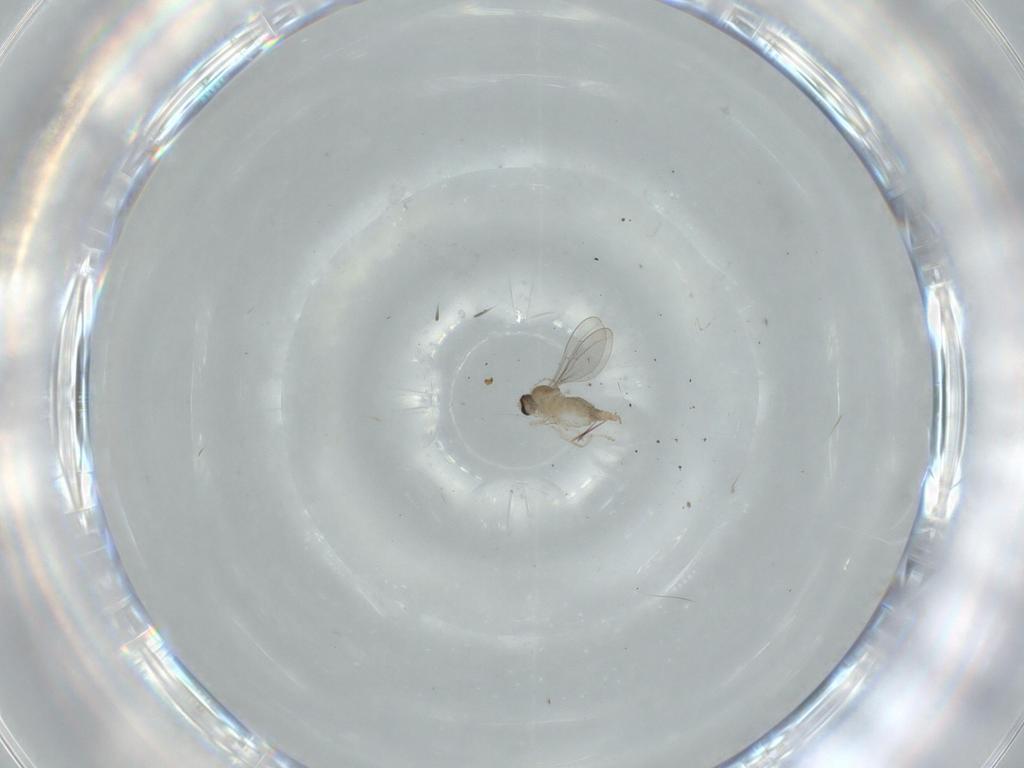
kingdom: Animalia
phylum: Arthropoda
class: Insecta
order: Diptera
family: Cecidomyiidae
